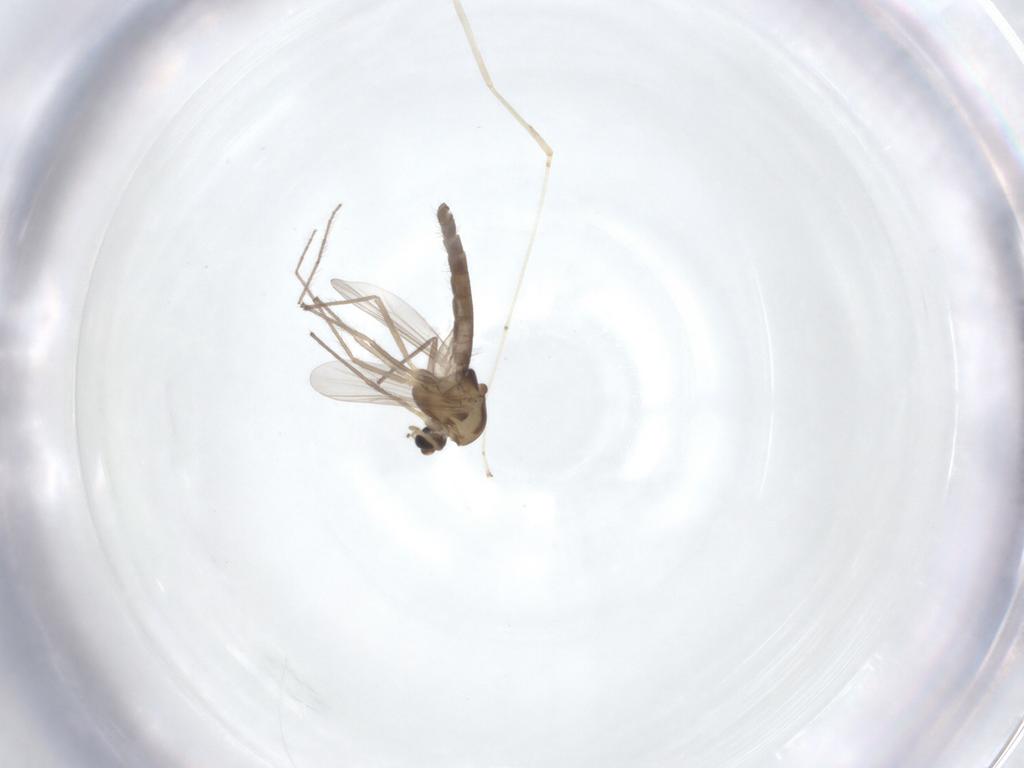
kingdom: Animalia
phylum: Arthropoda
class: Insecta
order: Diptera
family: Chironomidae
